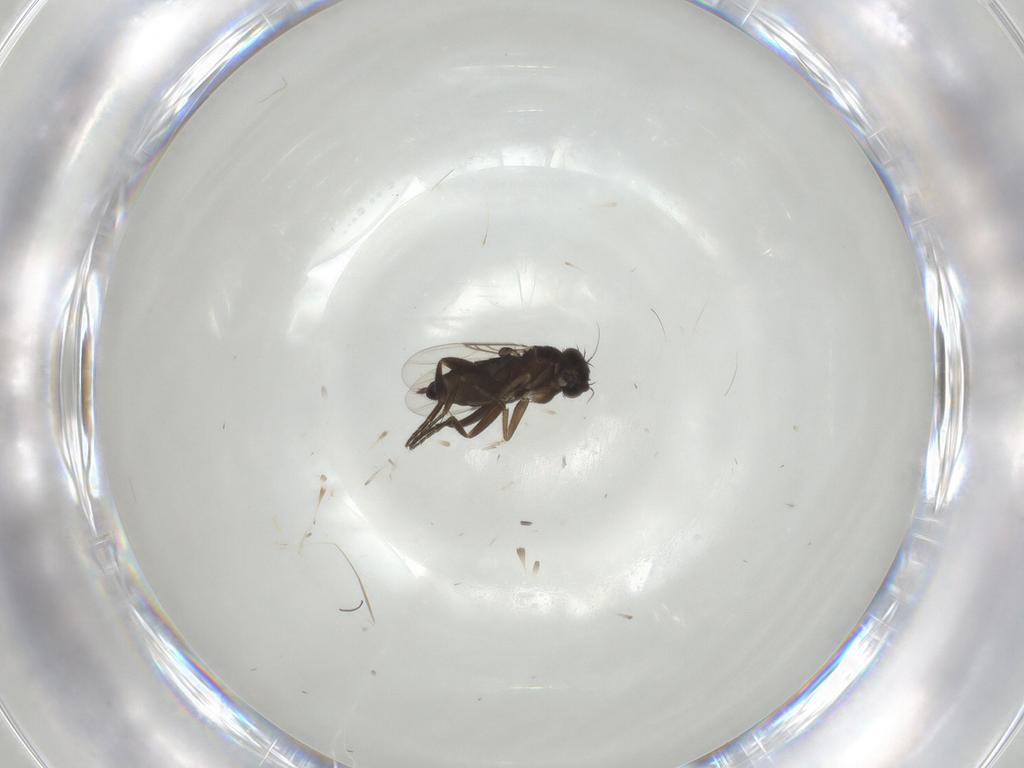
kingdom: Animalia
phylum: Arthropoda
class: Insecta
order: Diptera
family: Phoridae
